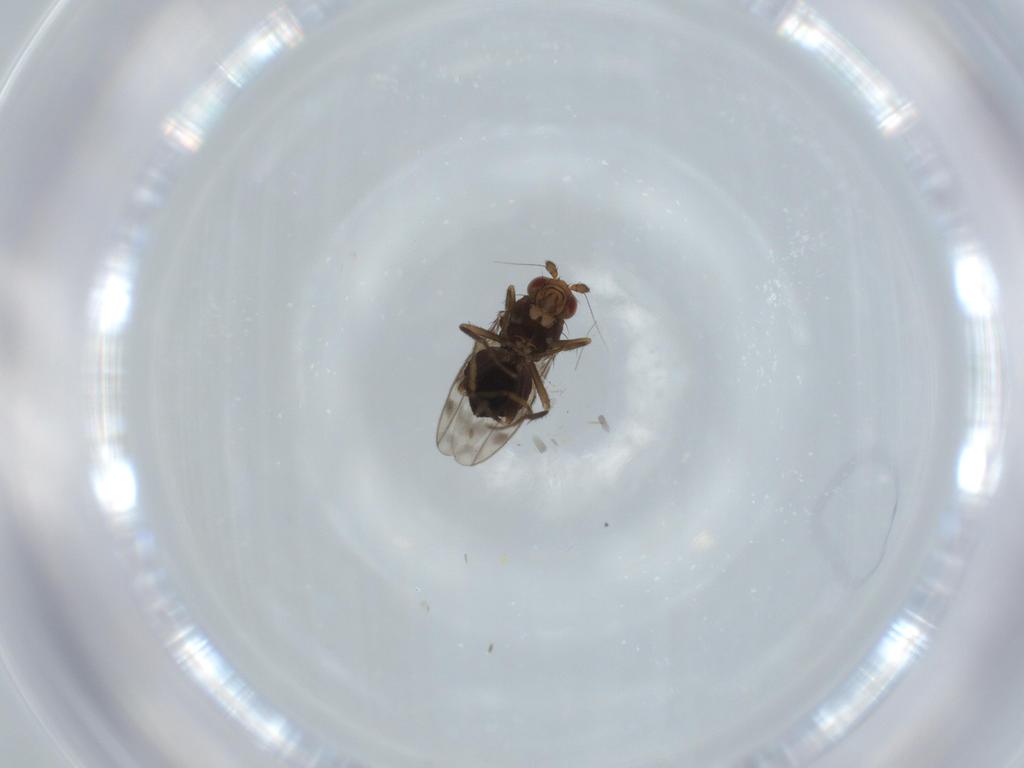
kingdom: Animalia
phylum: Arthropoda
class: Insecta
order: Diptera
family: Sphaeroceridae
